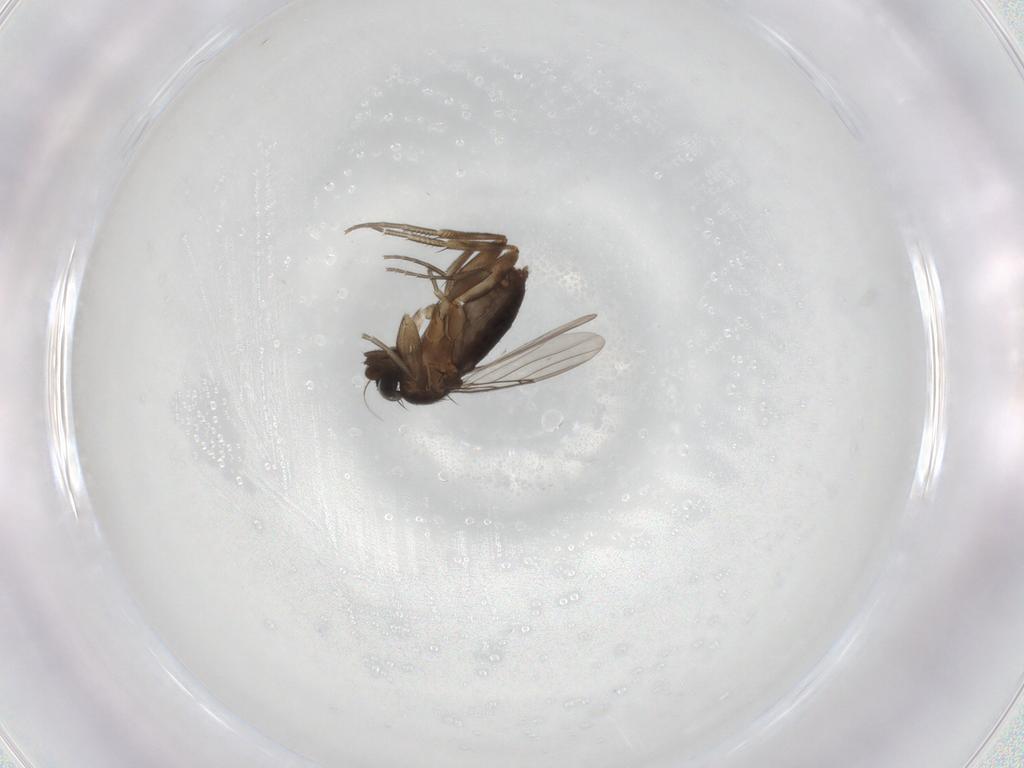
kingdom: Animalia
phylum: Arthropoda
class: Insecta
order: Diptera
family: Phoridae
